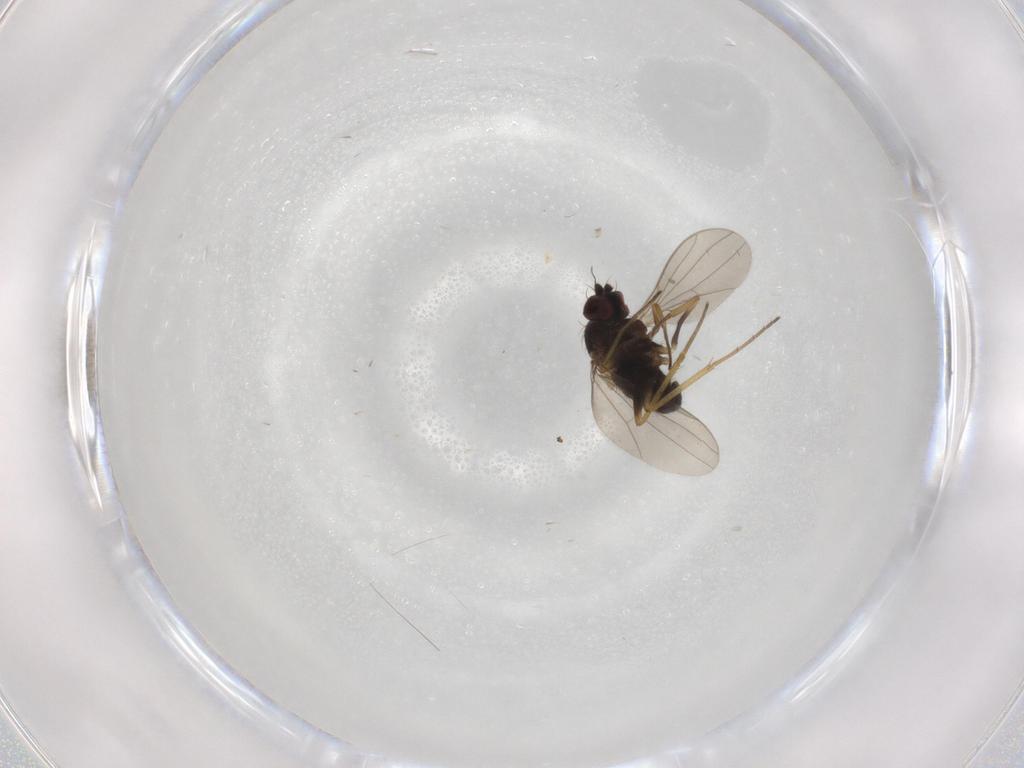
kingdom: Animalia
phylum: Arthropoda
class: Insecta
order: Diptera
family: Dolichopodidae
